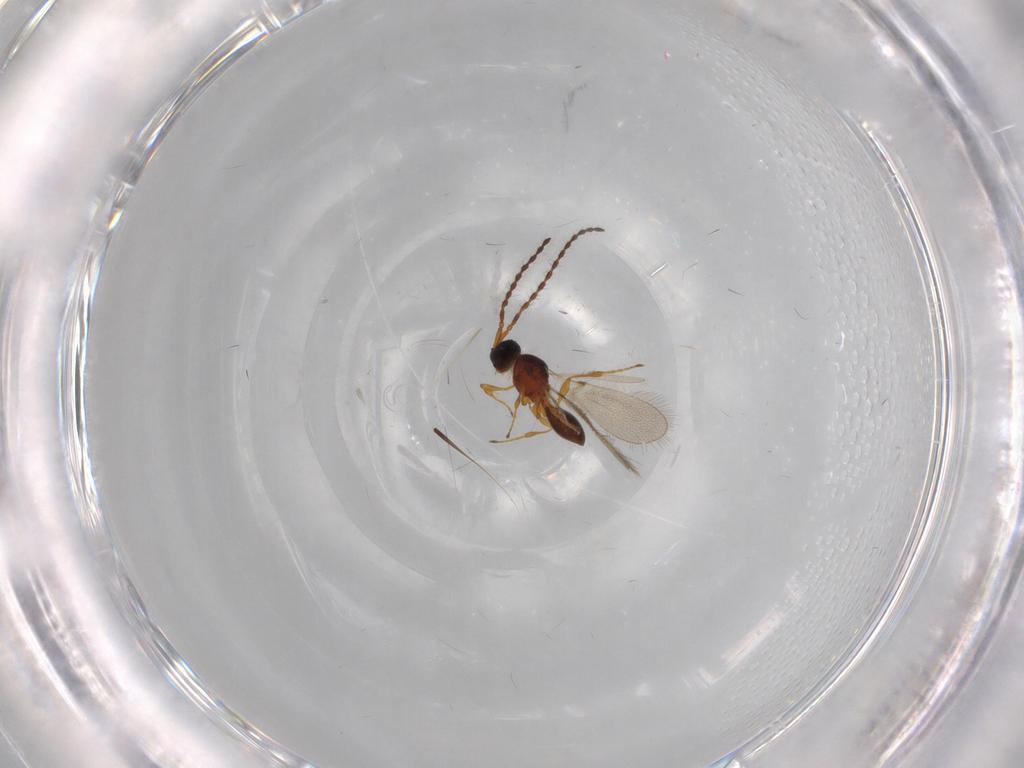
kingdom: Animalia
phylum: Arthropoda
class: Insecta
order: Hymenoptera
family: Diapriidae
